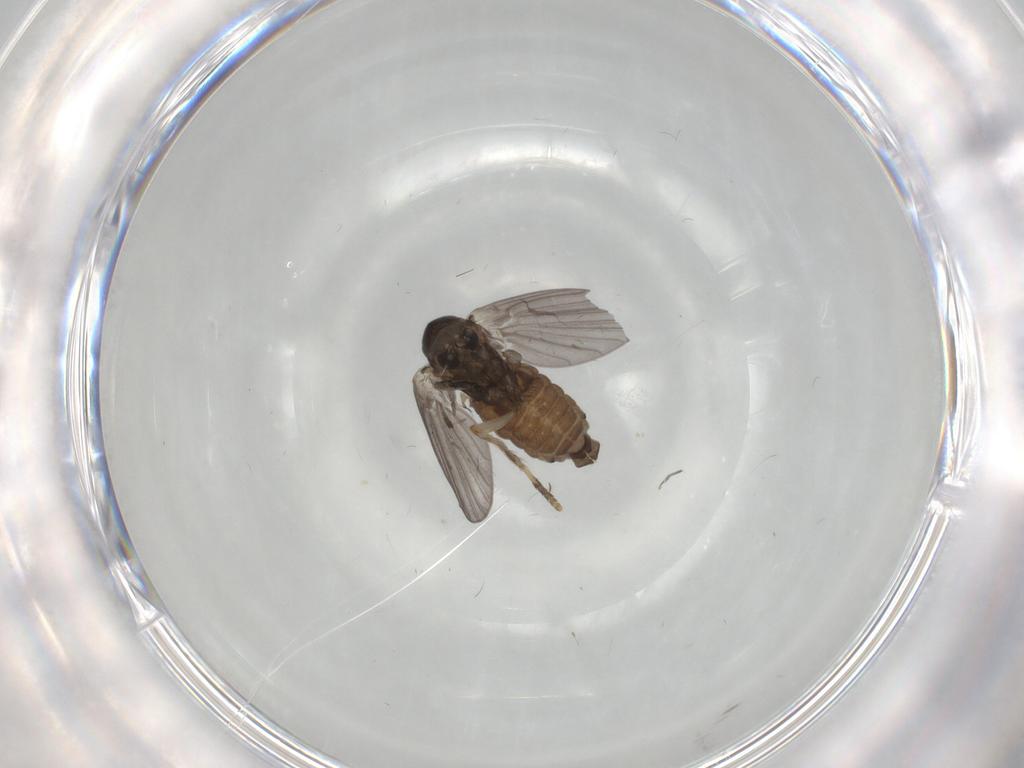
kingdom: Animalia
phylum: Arthropoda
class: Insecta
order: Diptera
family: Psychodidae
